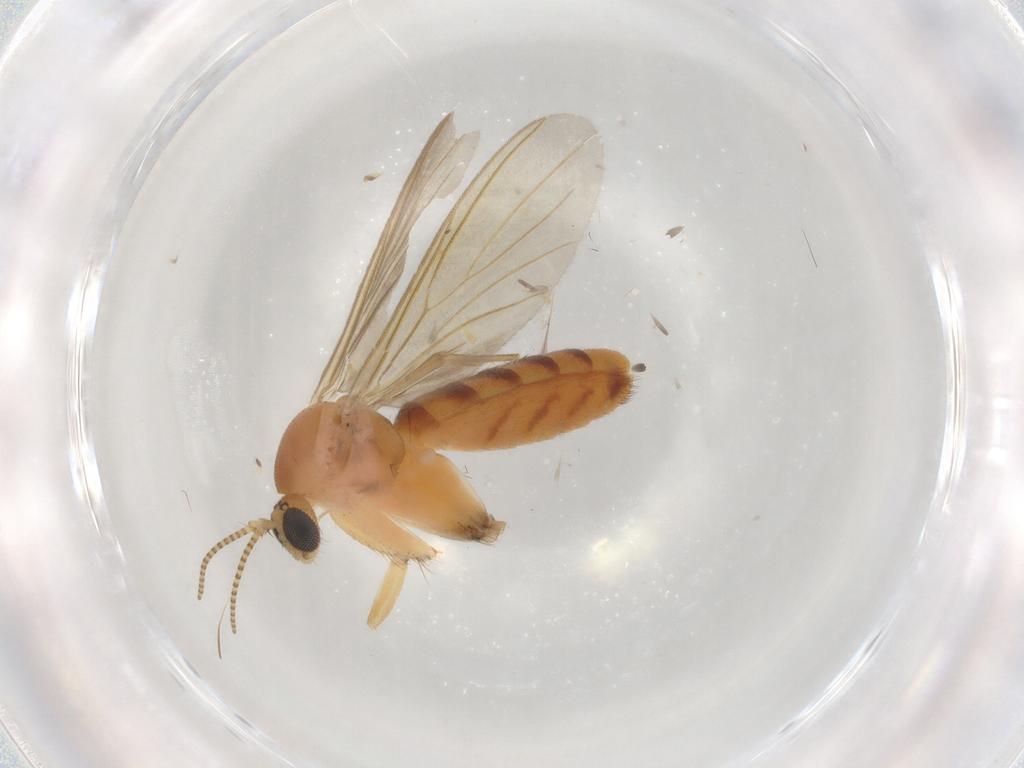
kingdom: Animalia
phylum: Arthropoda
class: Insecta
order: Diptera
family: Mycetophilidae
